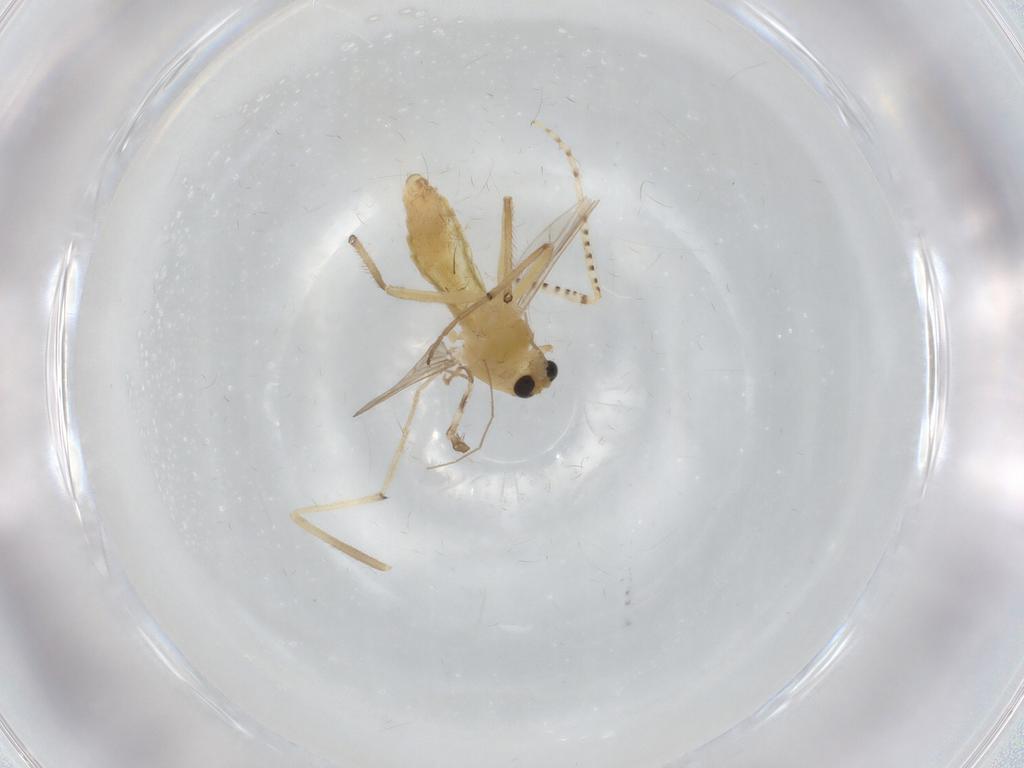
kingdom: Animalia
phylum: Arthropoda
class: Insecta
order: Diptera
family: Chironomidae
